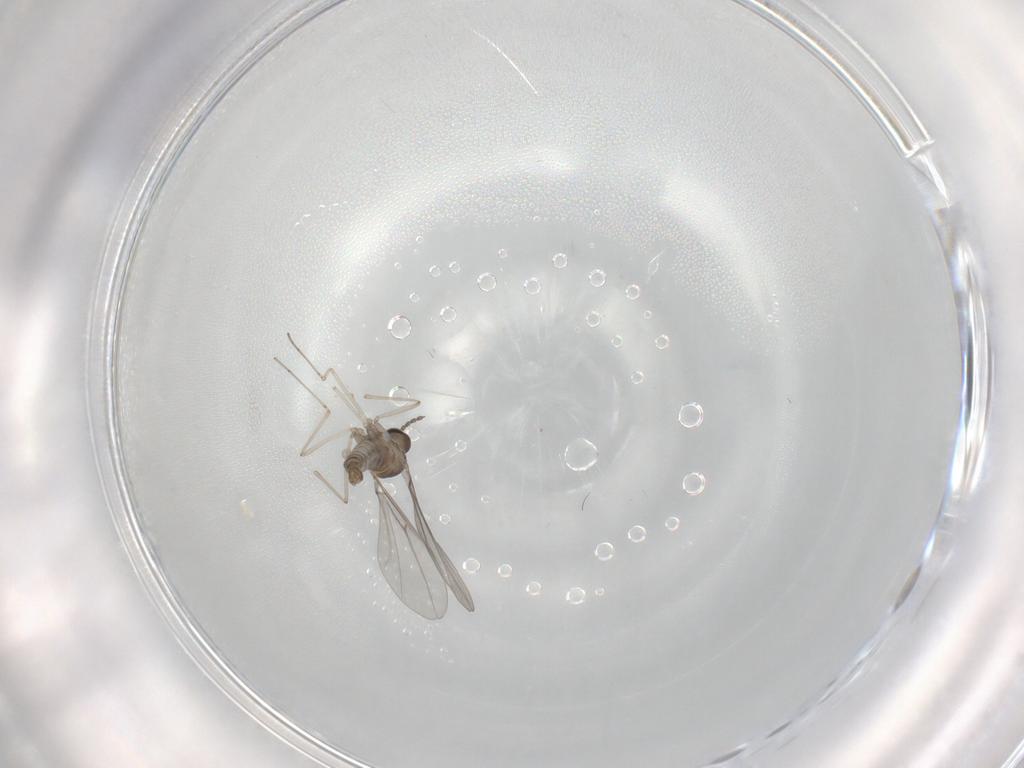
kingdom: Animalia
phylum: Arthropoda
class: Insecta
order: Diptera
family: Cecidomyiidae
